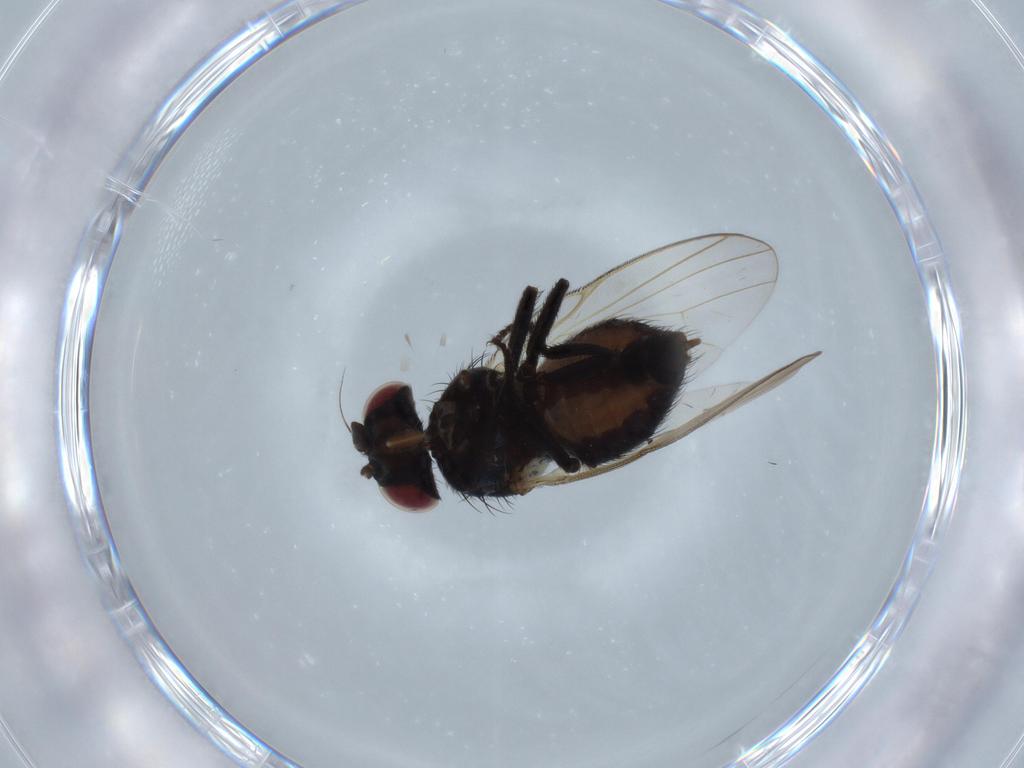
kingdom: Animalia
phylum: Arthropoda
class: Insecta
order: Diptera
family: Lonchaeidae
